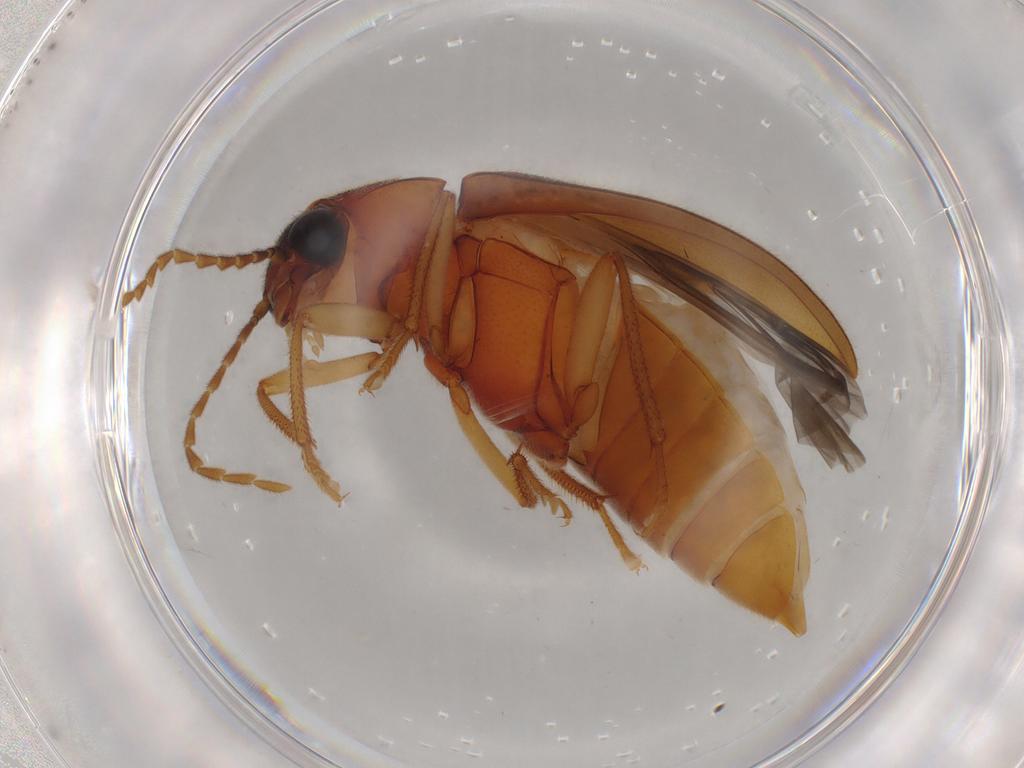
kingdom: Animalia
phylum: Arthropoda
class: Insecta
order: Coleoptera
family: Ptilodactylidae
